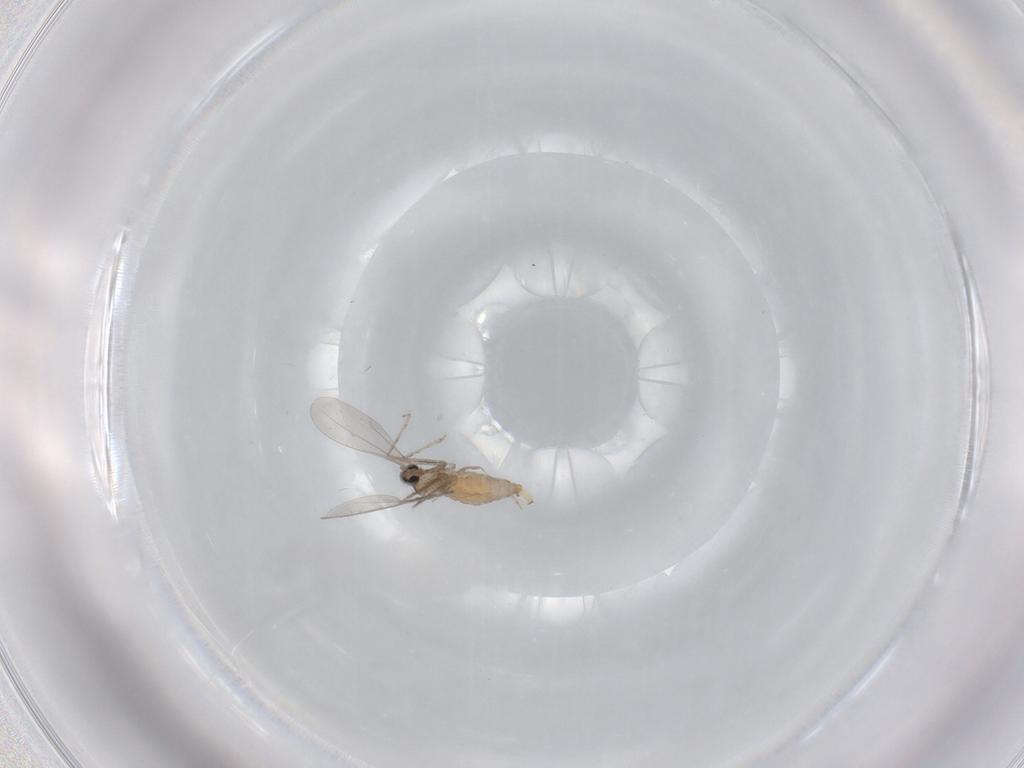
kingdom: Animalia
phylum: Arthropoda
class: Insecta
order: Diptera
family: Cecidomyiidae
